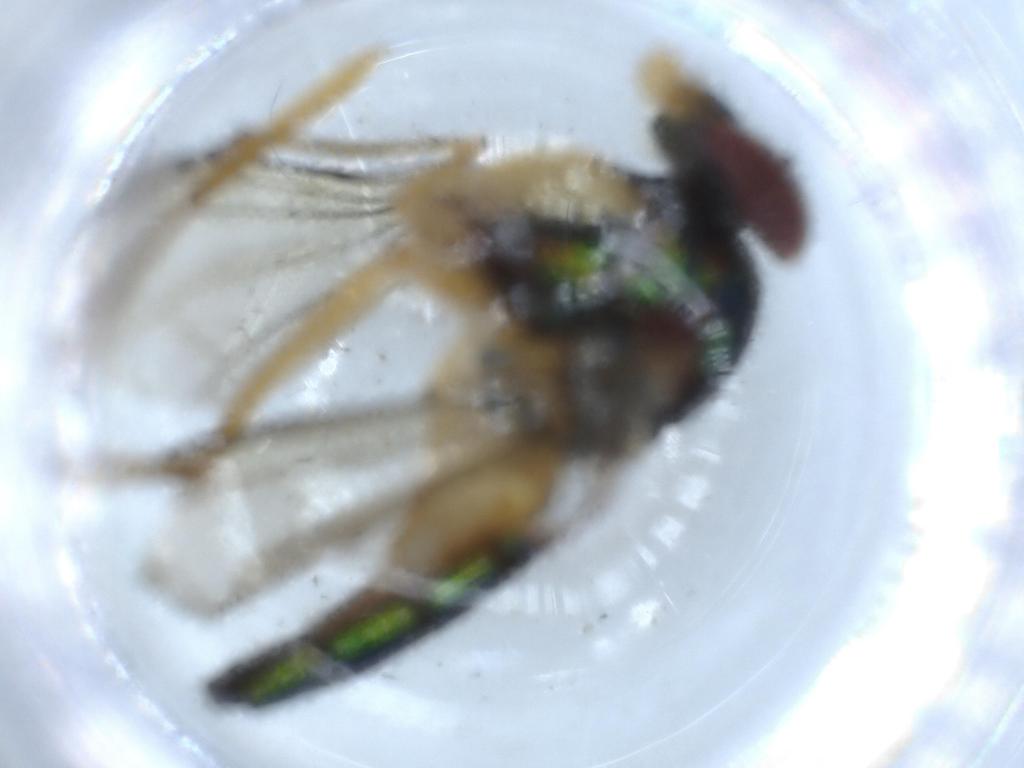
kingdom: Animalia
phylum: Arthropoda
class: Insecta
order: Diptera
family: Dolichopodidae
